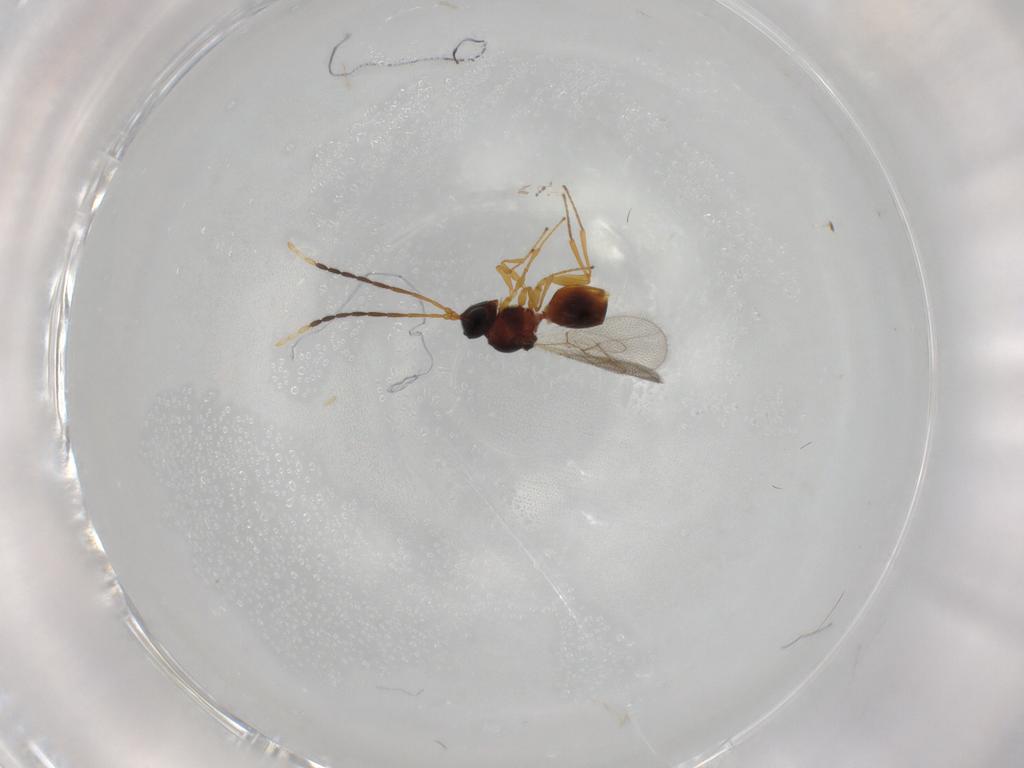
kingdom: Animalia
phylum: Arthropoda
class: Insecta
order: Hymenoptera
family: Figitidae
